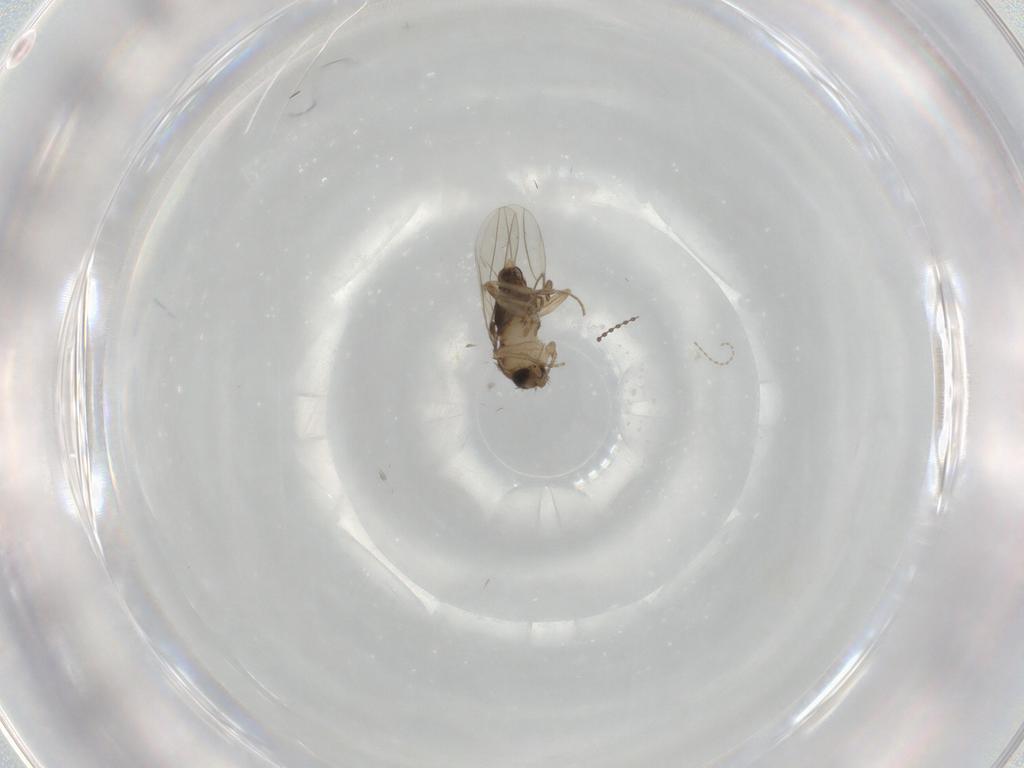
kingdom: Animalia
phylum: Arthropoda
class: Insecta
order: Diptera
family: Phoridae
